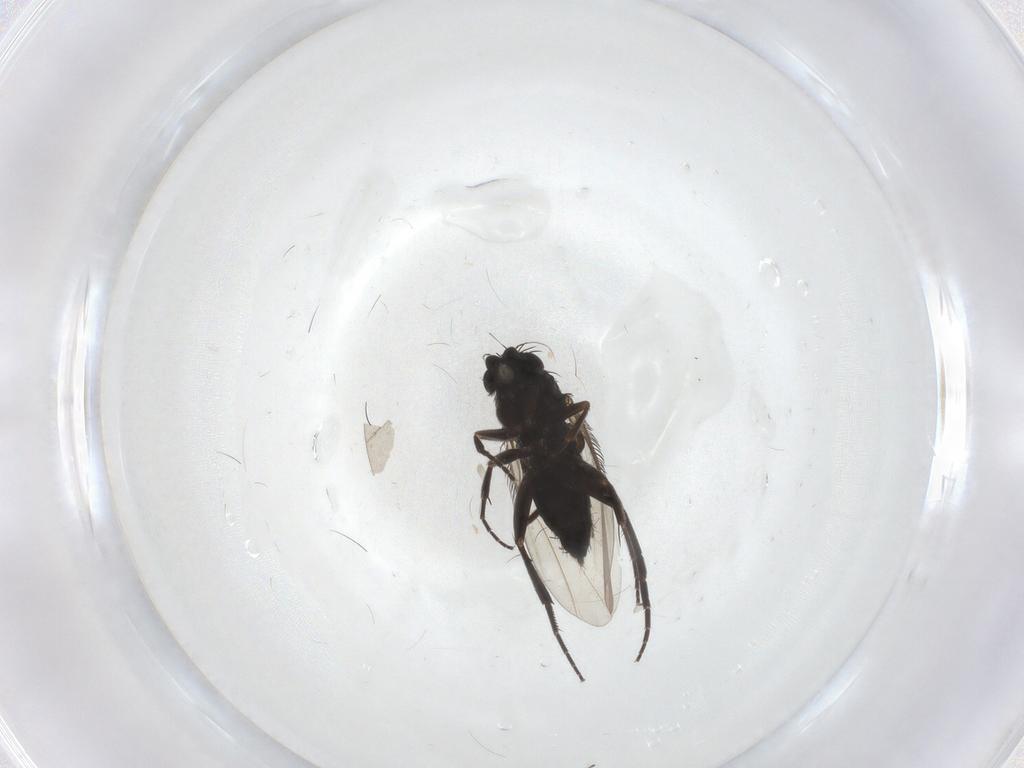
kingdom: Animalia
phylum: Arthropoda
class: Insecta
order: Diptera
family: Phoridae
